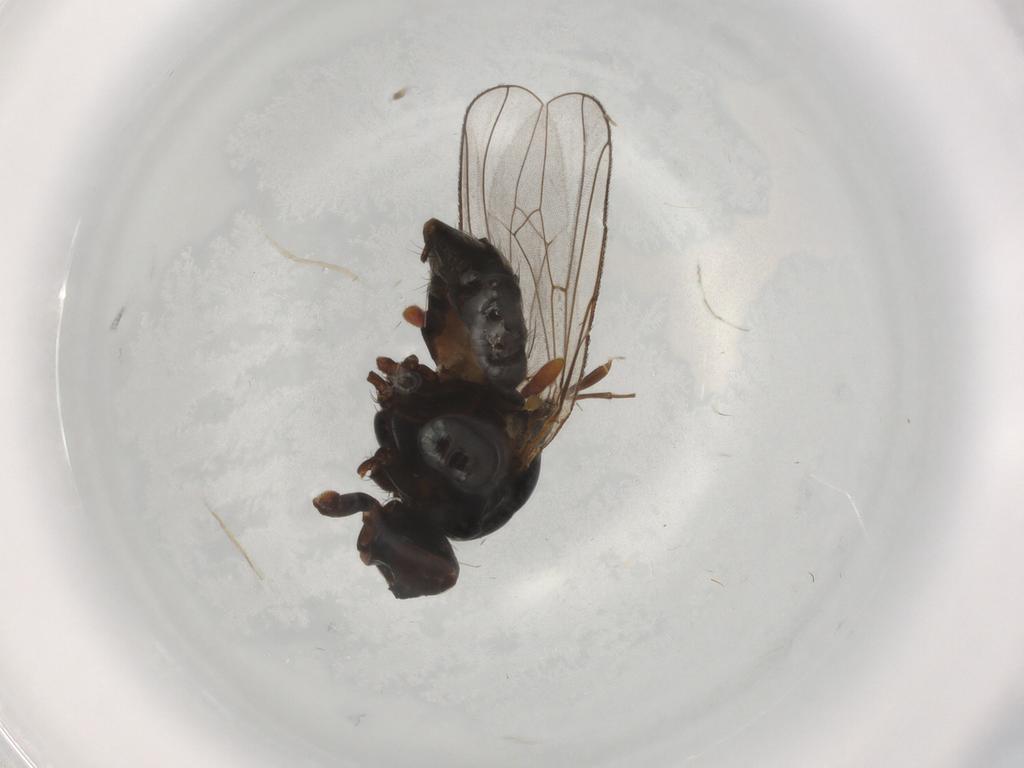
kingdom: Animalia
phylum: Arthropoda
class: Insecta
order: Diptera
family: Anthomyiidae
